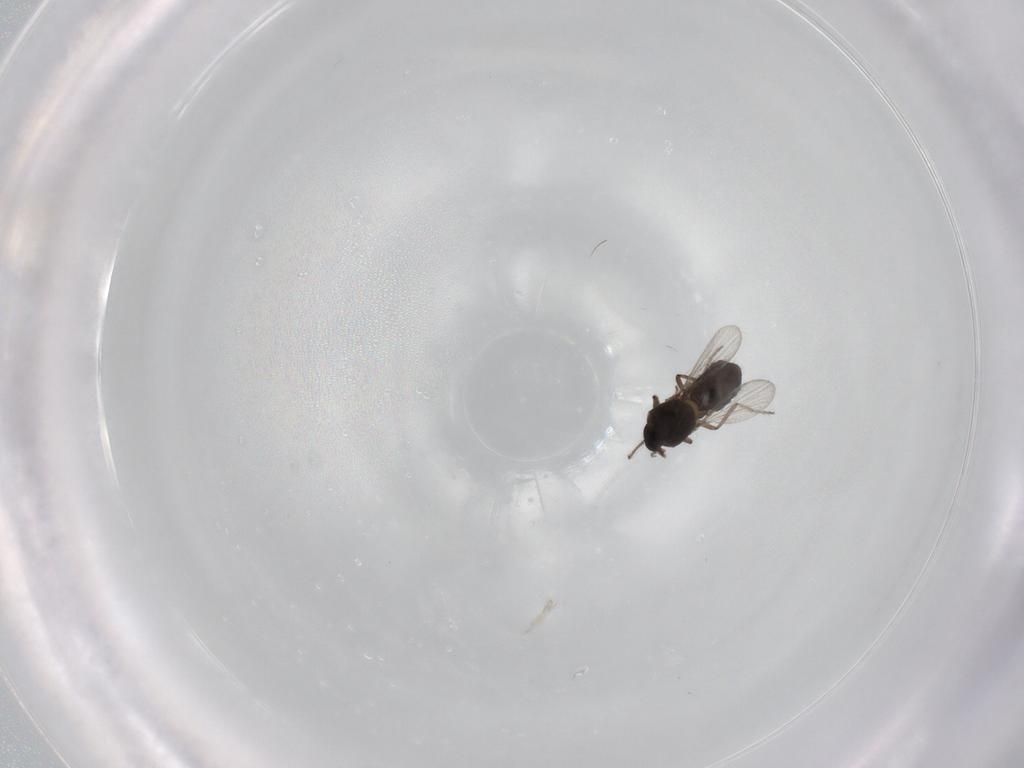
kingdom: Animalia
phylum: Arthropoda
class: Insecta
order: Diptera
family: Ceratopogonidae
